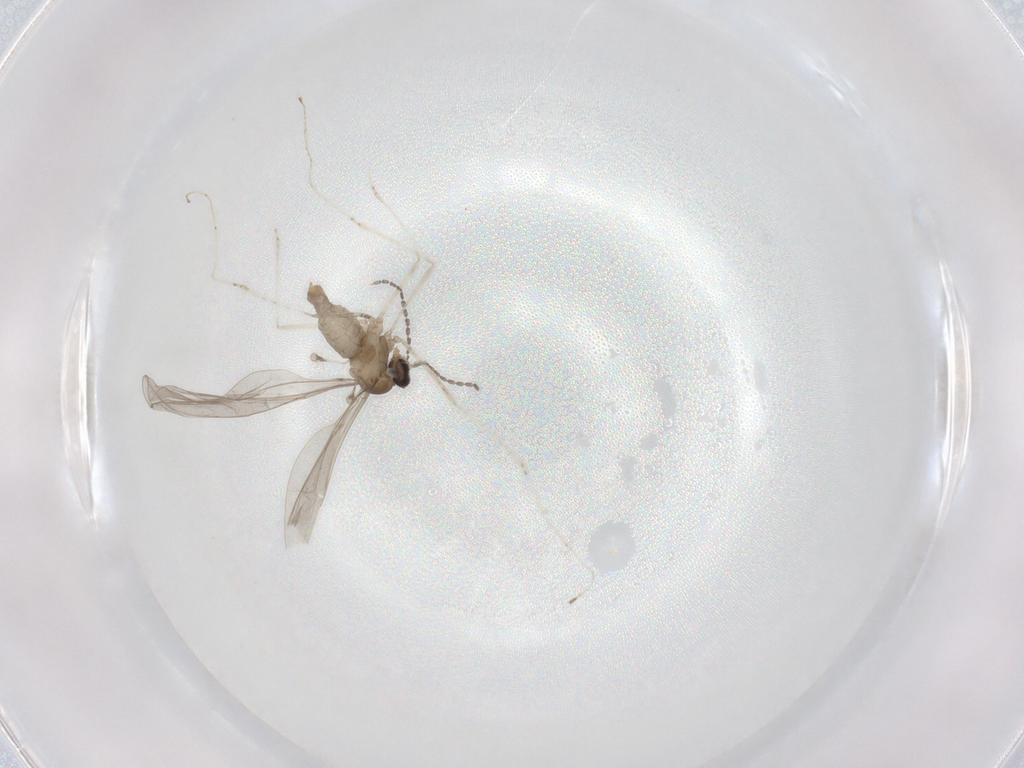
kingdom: Animalia
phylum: Arthropoda
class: Insecta
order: Diptera
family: Cecidomyiidae
